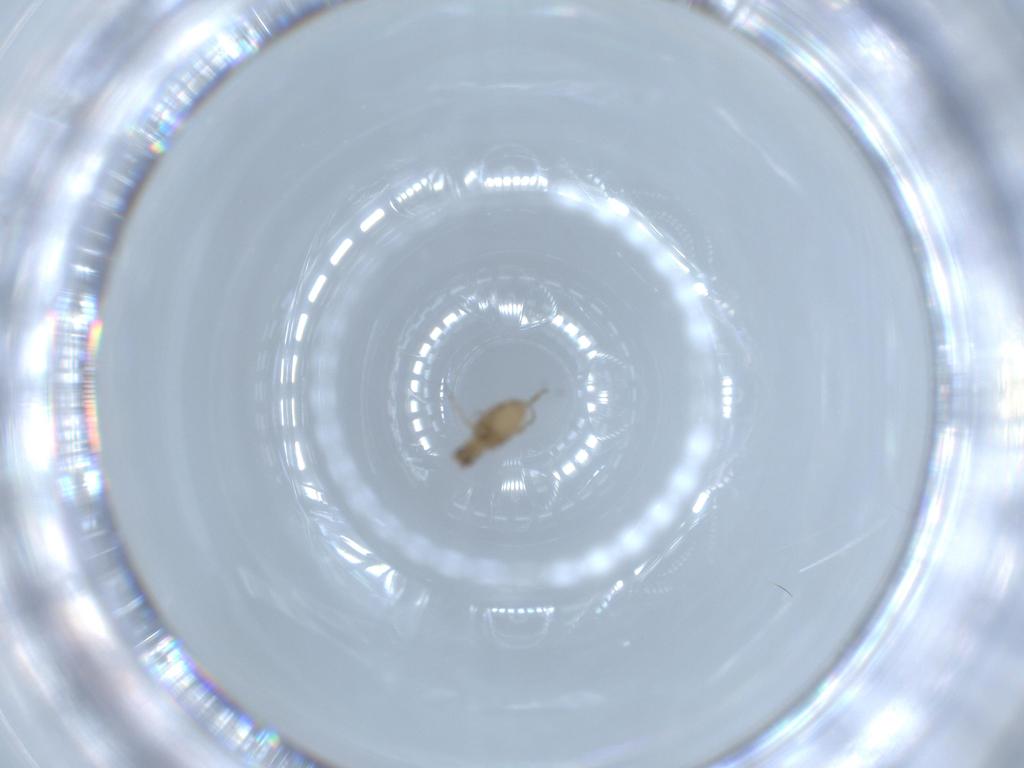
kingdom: Animalia
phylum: Arthropoda
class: Insecta
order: Diptera
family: Phoridae
